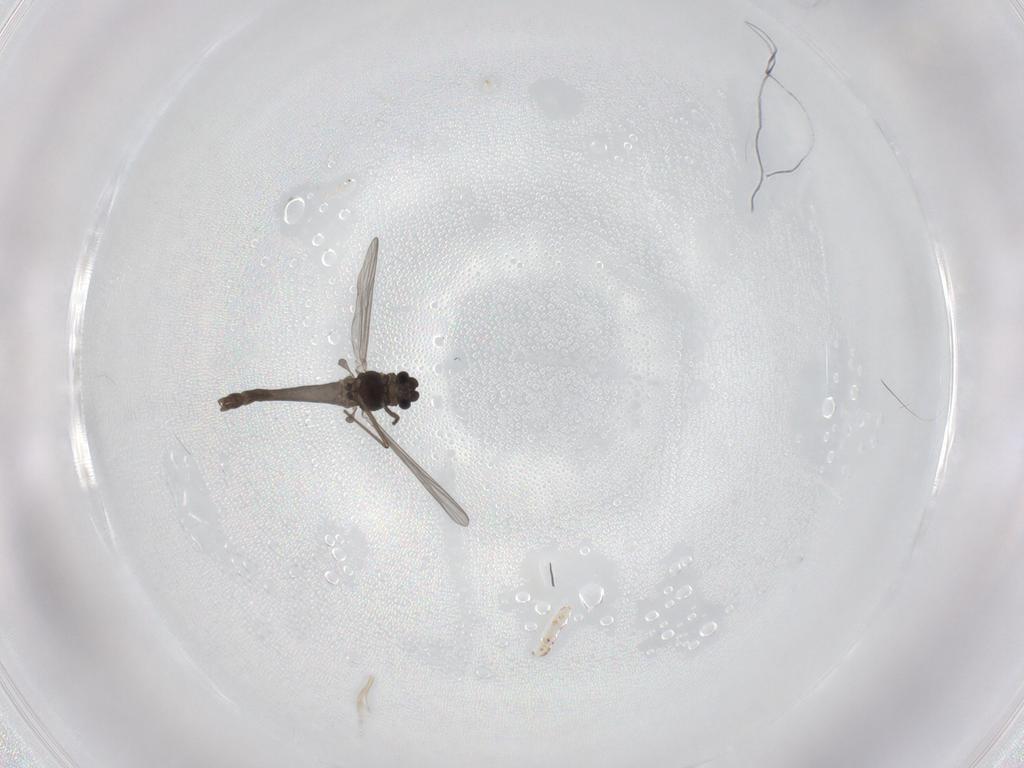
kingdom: Animalia
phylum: Arthropoda
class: Insecta
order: Diptera
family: Chironomidae
